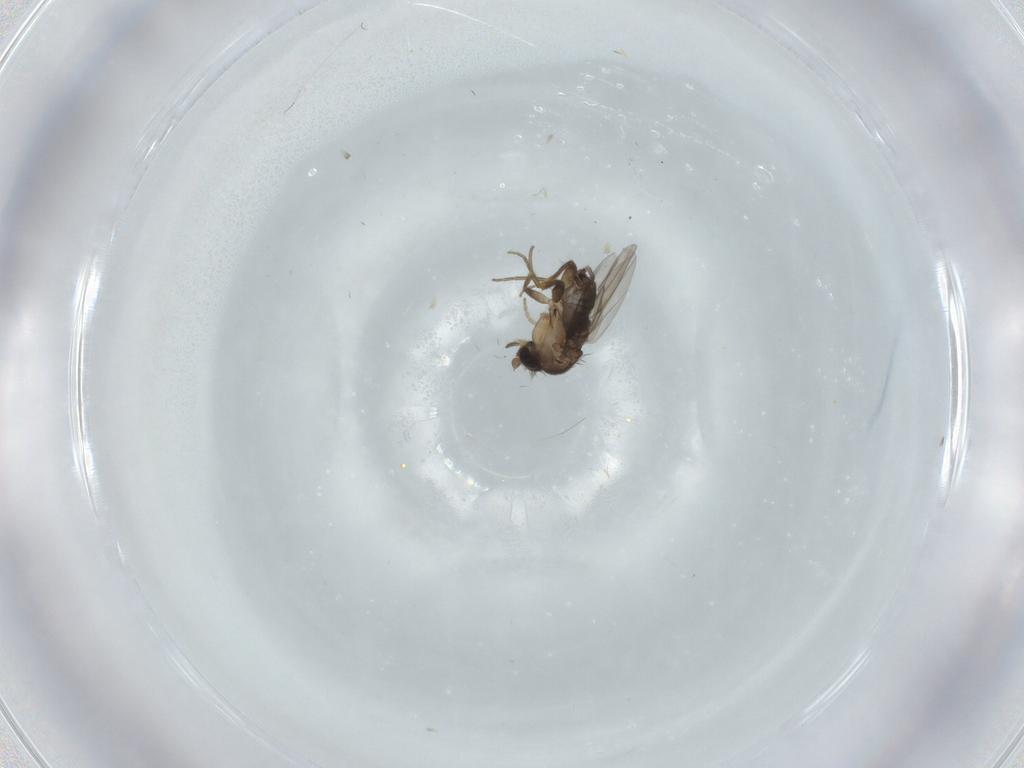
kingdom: Animalia
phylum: Arthropoda
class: Insecta
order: Diptera
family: Phoridae
